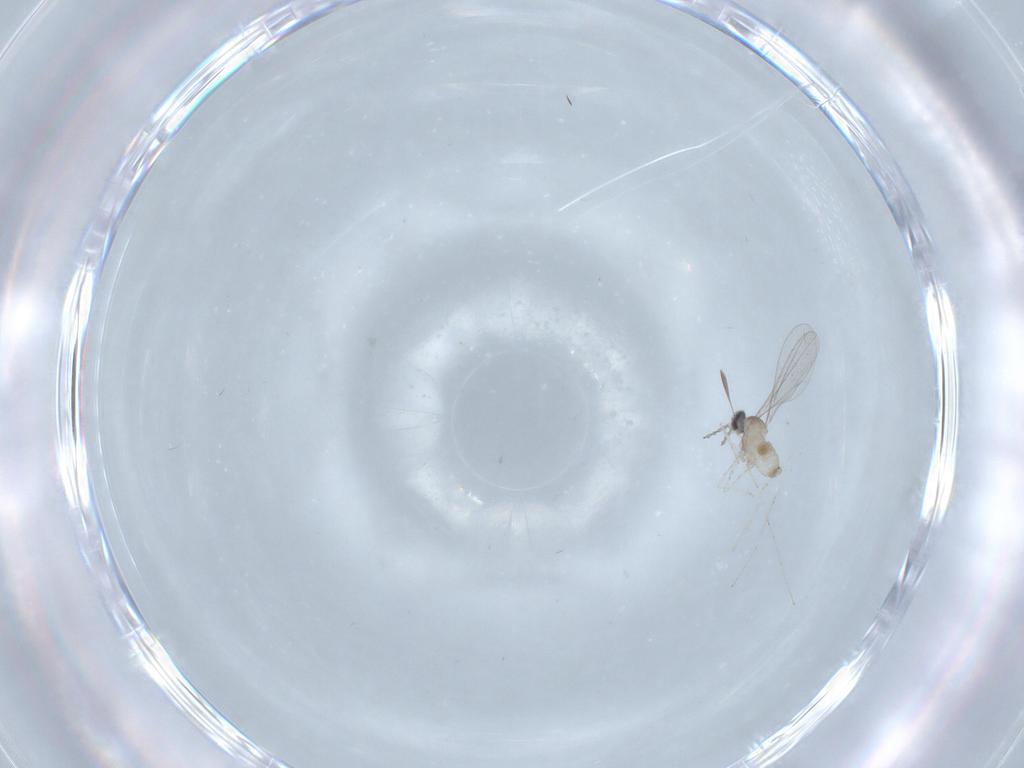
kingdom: Animalia
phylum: Arthropoda
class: Insecta
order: Diptera
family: Cecidomyiidae
